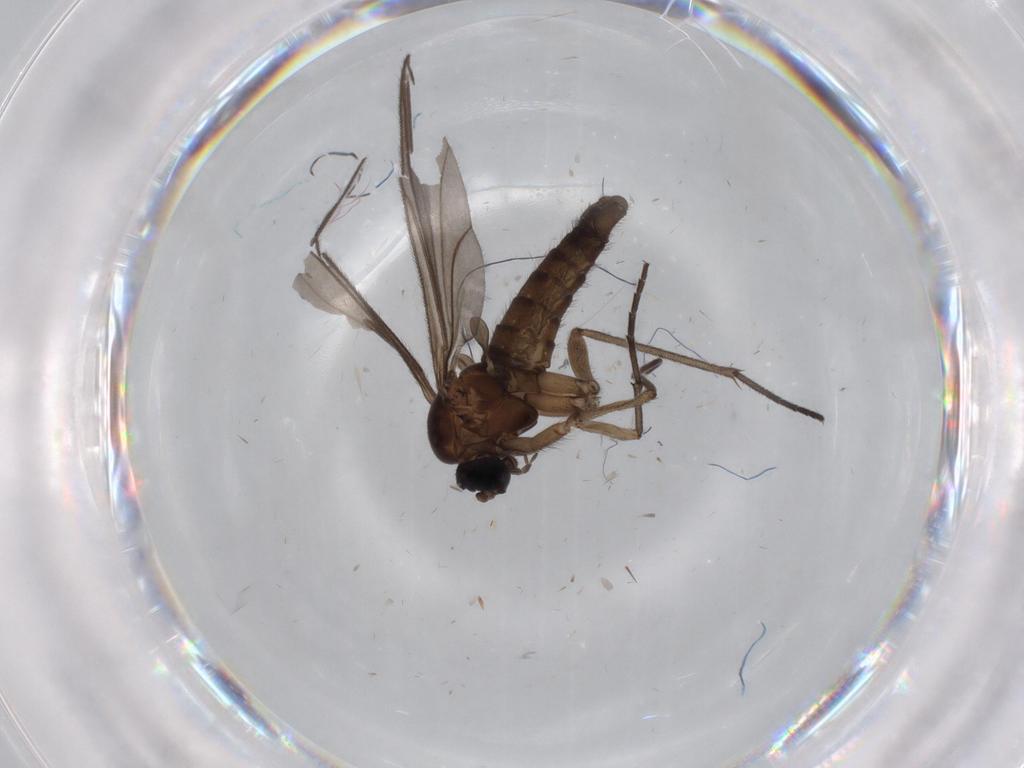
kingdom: Animalia
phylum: Arthropoda
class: Insecta
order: Diptera
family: Sciaridae
